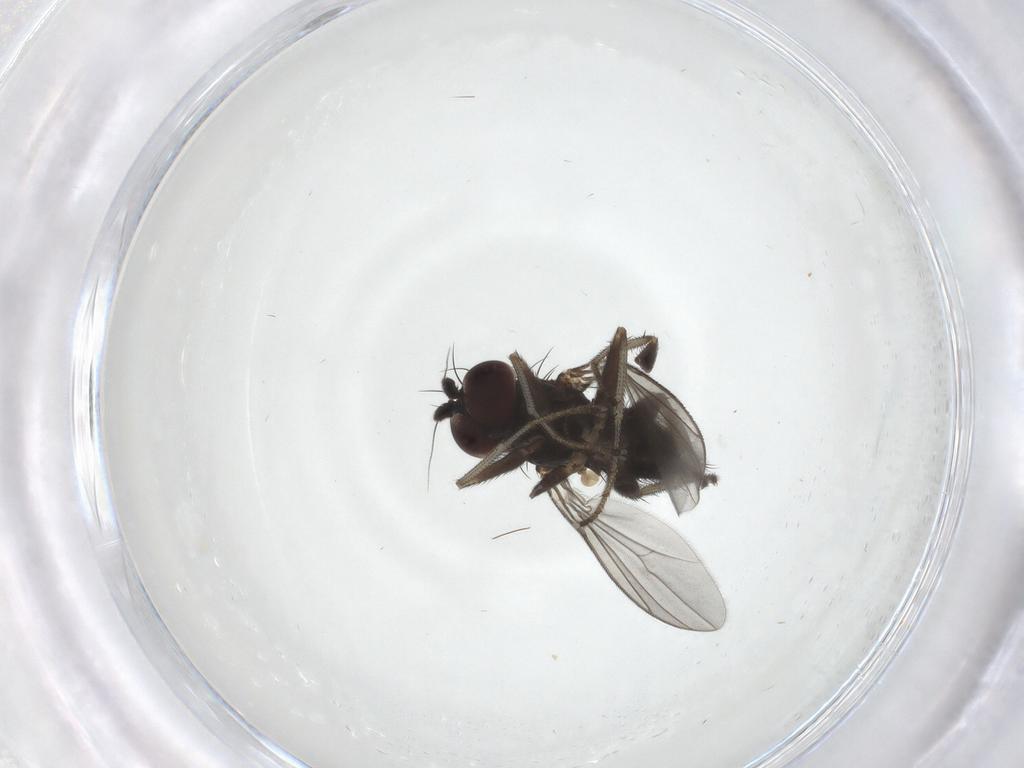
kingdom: Animalia
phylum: Arthropoda
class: Insecta
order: Diptera
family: Dolichopodidae
